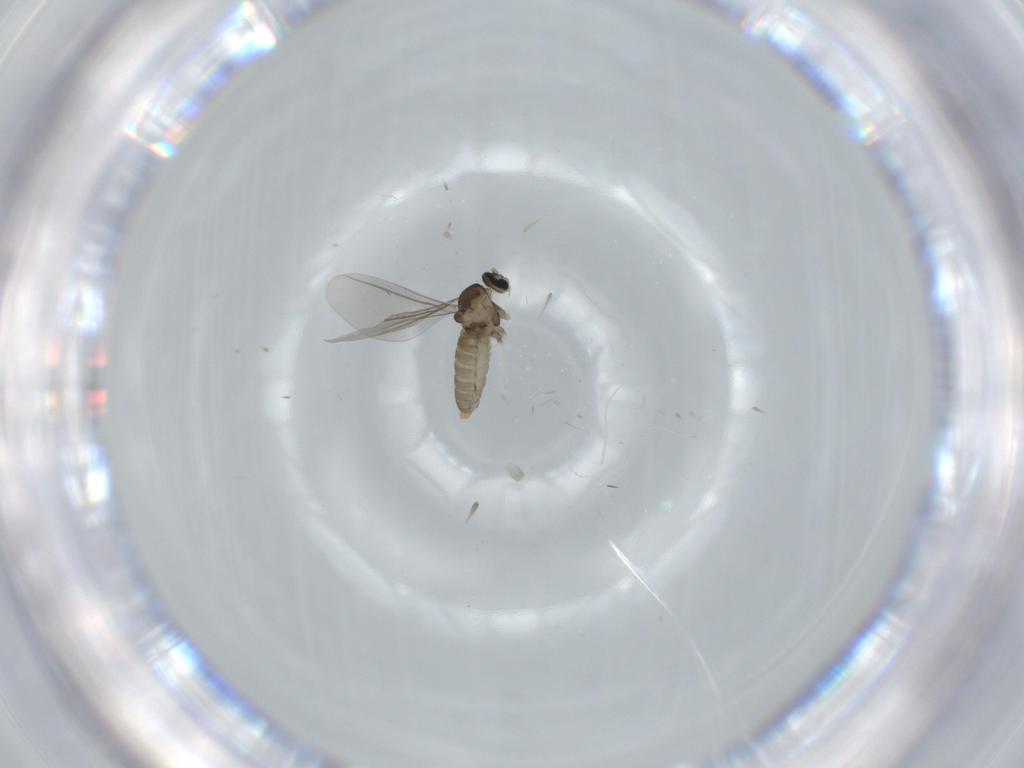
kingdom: Animalia
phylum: Arthropoda
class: Insecta
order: Diptera
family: Cecidomyiidae
